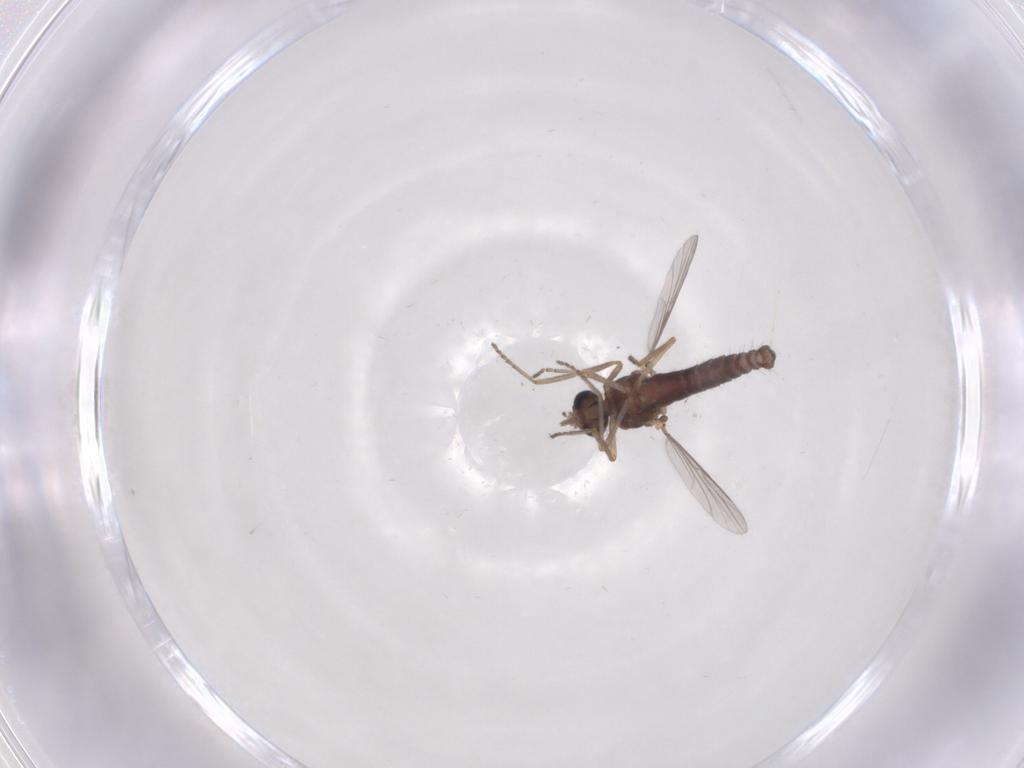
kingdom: Animalia
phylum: Arthropoda
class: Insecta
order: Diptera
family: Ceratopogonidae
